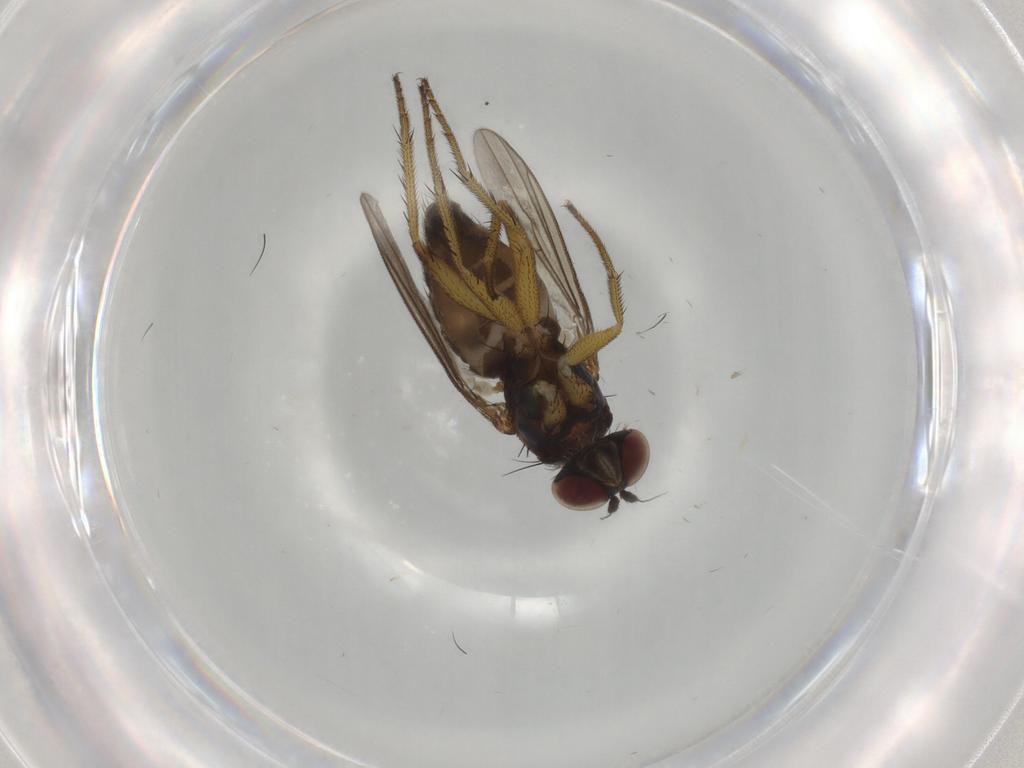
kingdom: Animalia
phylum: Arthropoda
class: Insecta
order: Diptera
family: Dolichopodidae
